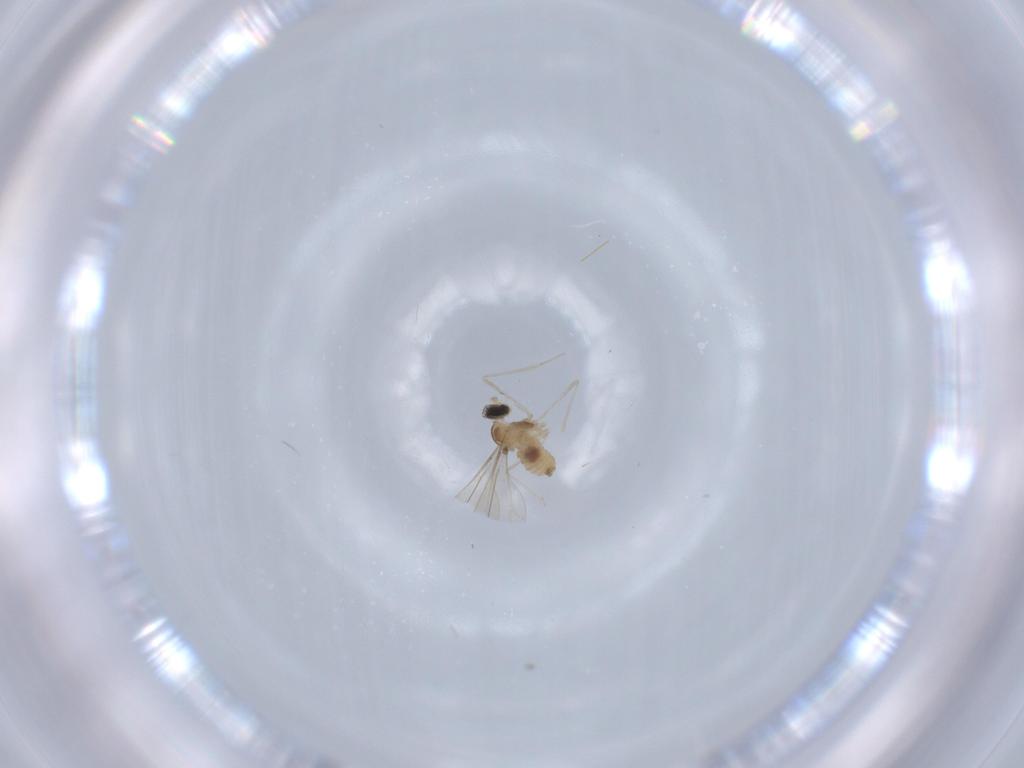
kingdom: Animalia
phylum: Arthropoda
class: Insecta
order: Diptera
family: Cecidomyiidae
